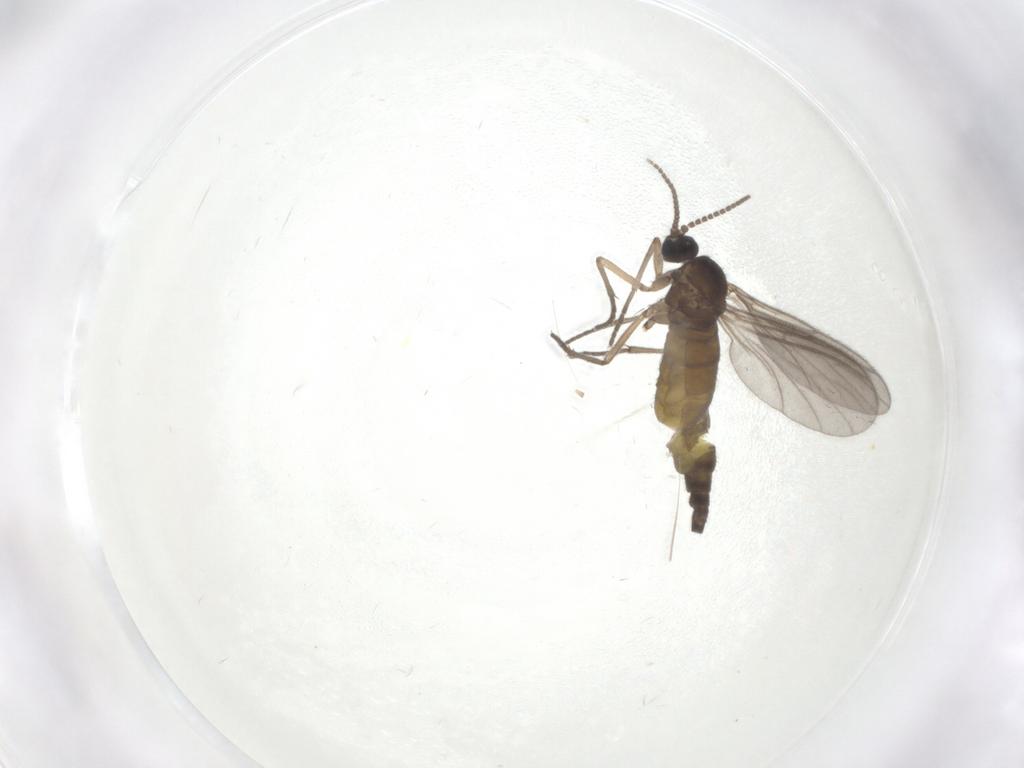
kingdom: Animalia
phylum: Arthropoda
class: Insecta
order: Diptera
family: Sciaridae
